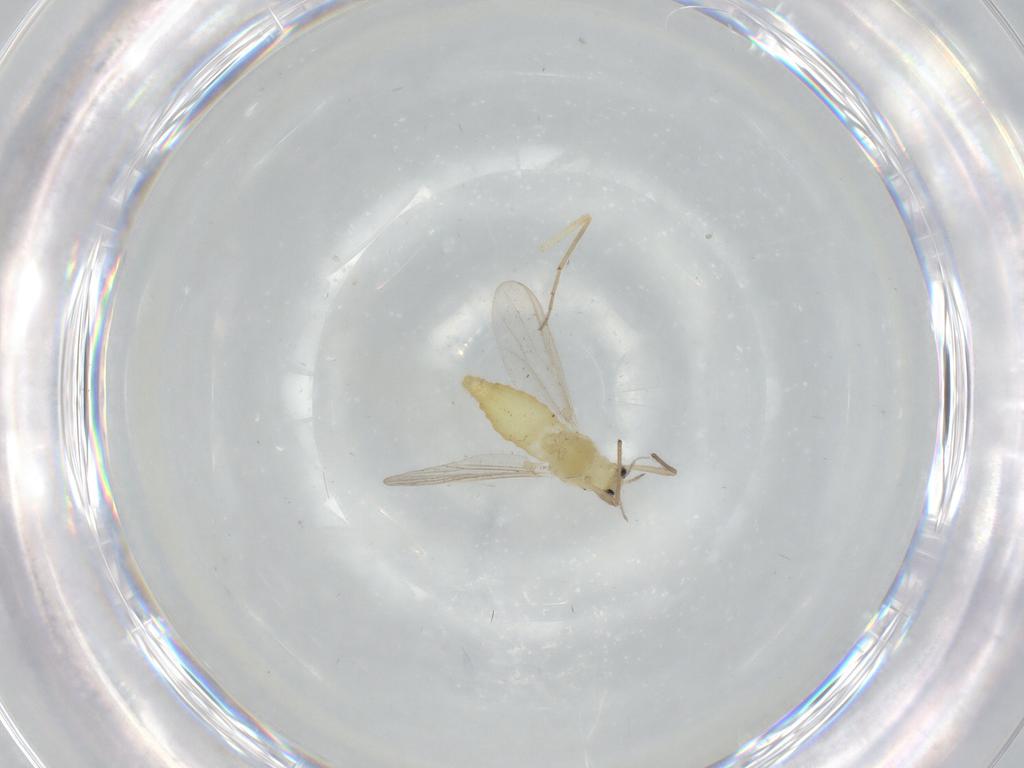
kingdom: Animalia
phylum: Arthropoda
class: Insecta
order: Diptera
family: Chironomidae
